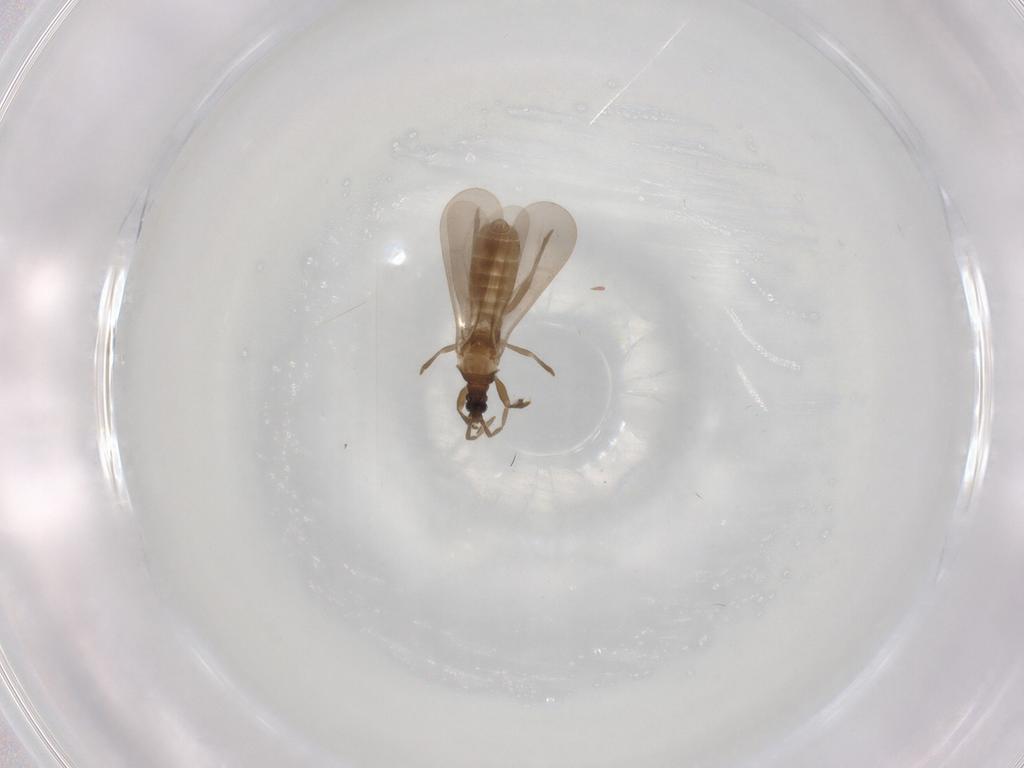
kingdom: Animalia
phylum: Arthropoda
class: Insecta
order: Hemiptera
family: Enicocephalidae
